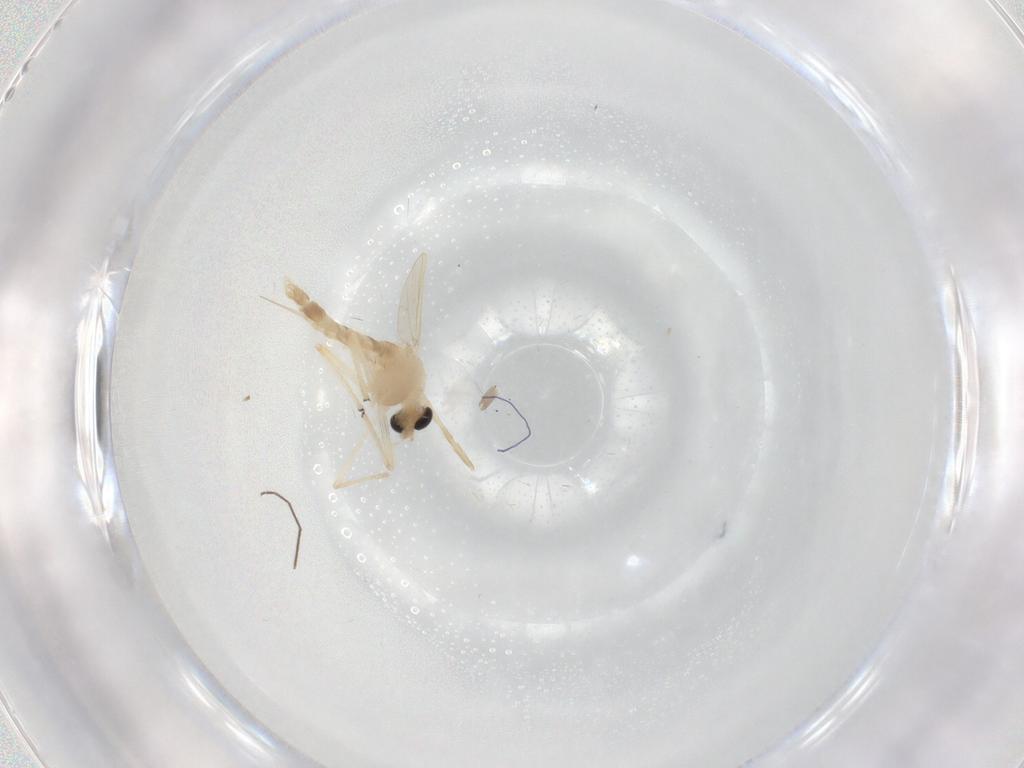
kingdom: Animalia
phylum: Arthropoda
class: Insecta
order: Diptera
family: Chironomidae
